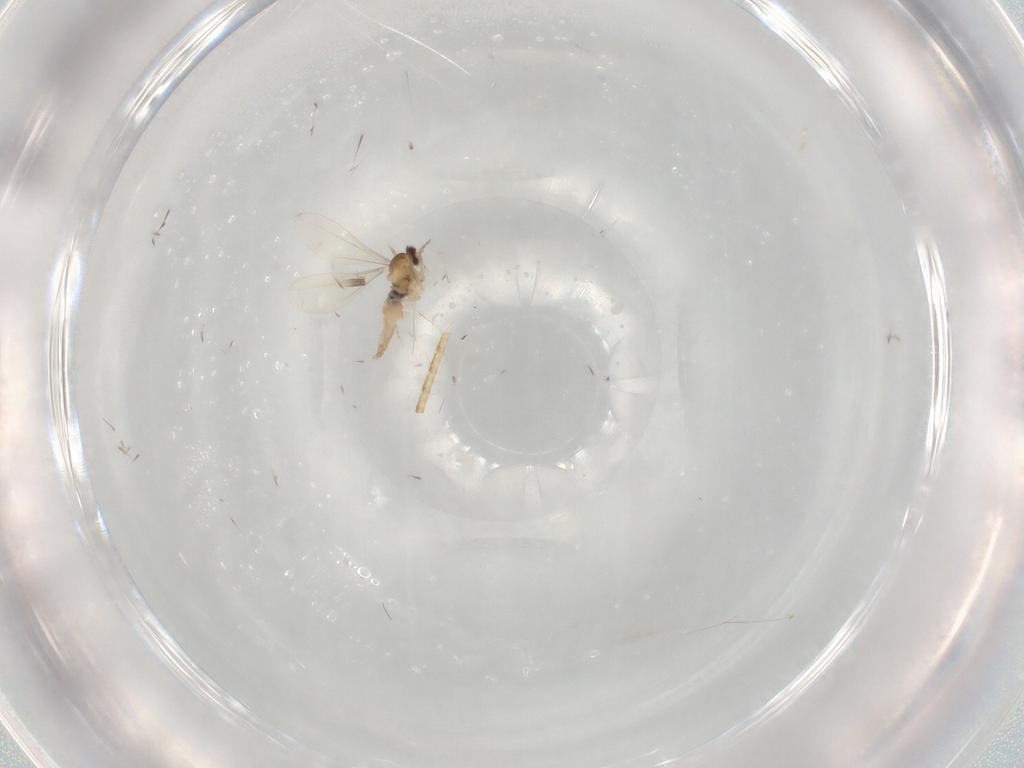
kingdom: Animalia
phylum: Arthropoda
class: Insecta
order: Diptera
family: Cecidomyiidae
